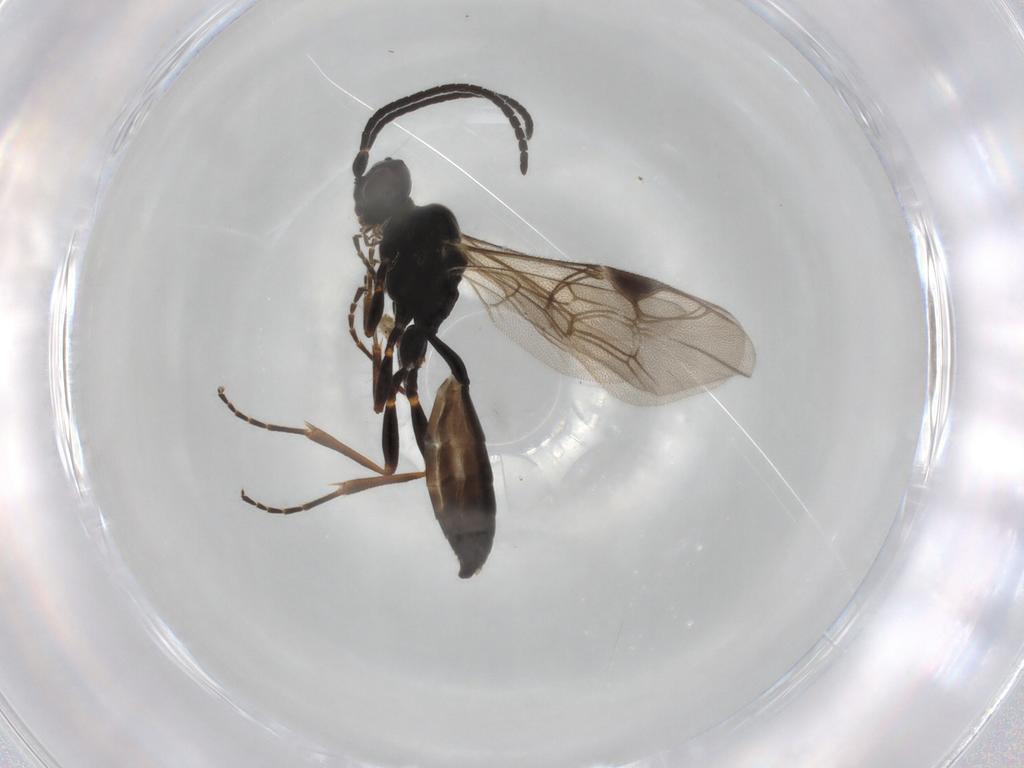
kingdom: Animalia
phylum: Arthropoda
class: Insecta
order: Hymenoptera
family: Ichneumonidae
